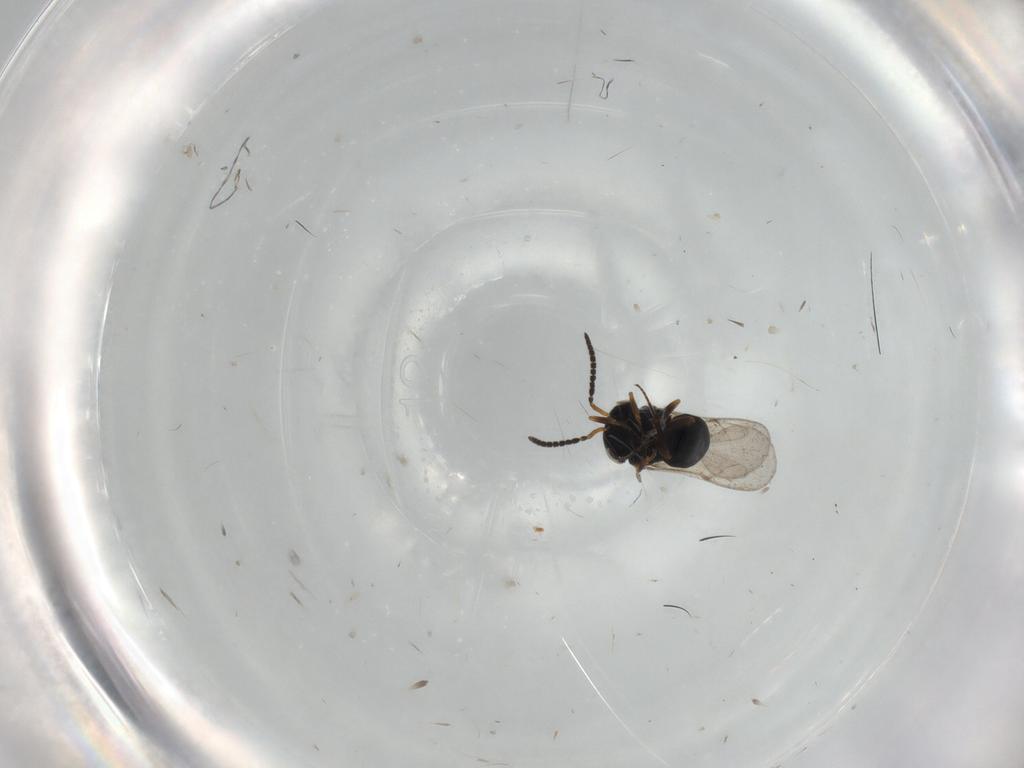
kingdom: Animalia
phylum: Arthropoda
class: Insecta
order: Hymenoptera
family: Scelionidae
